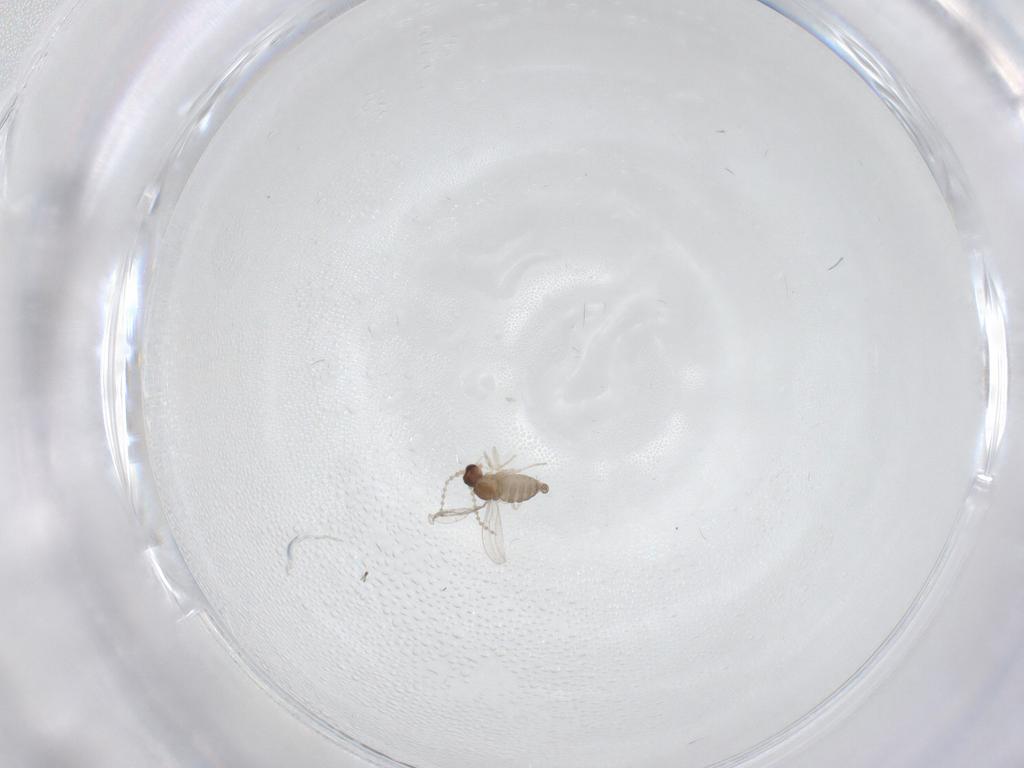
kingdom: Animalia
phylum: Arthropoda
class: Insecta
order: Diptera
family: Cecidomyiidae
